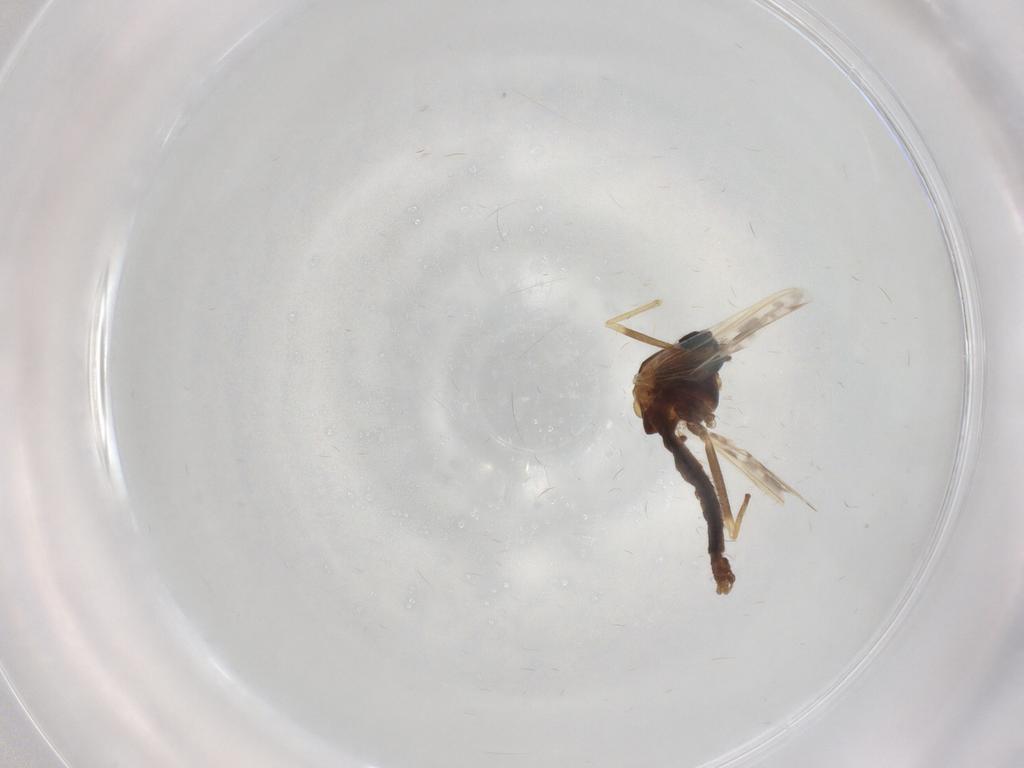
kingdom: Animalia
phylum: Arthropoda
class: Insecta
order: Diptera
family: Chironomidae
